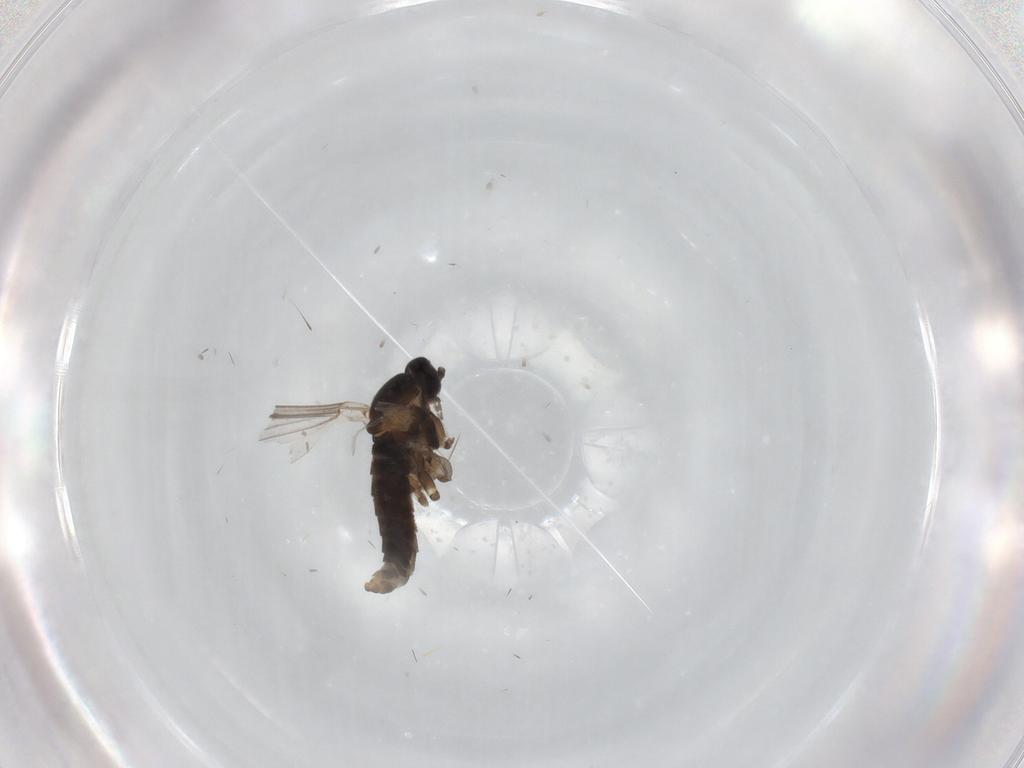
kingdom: Animalia
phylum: Arthropoda
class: Insecta
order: Diptera
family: Cecidomyiidae
